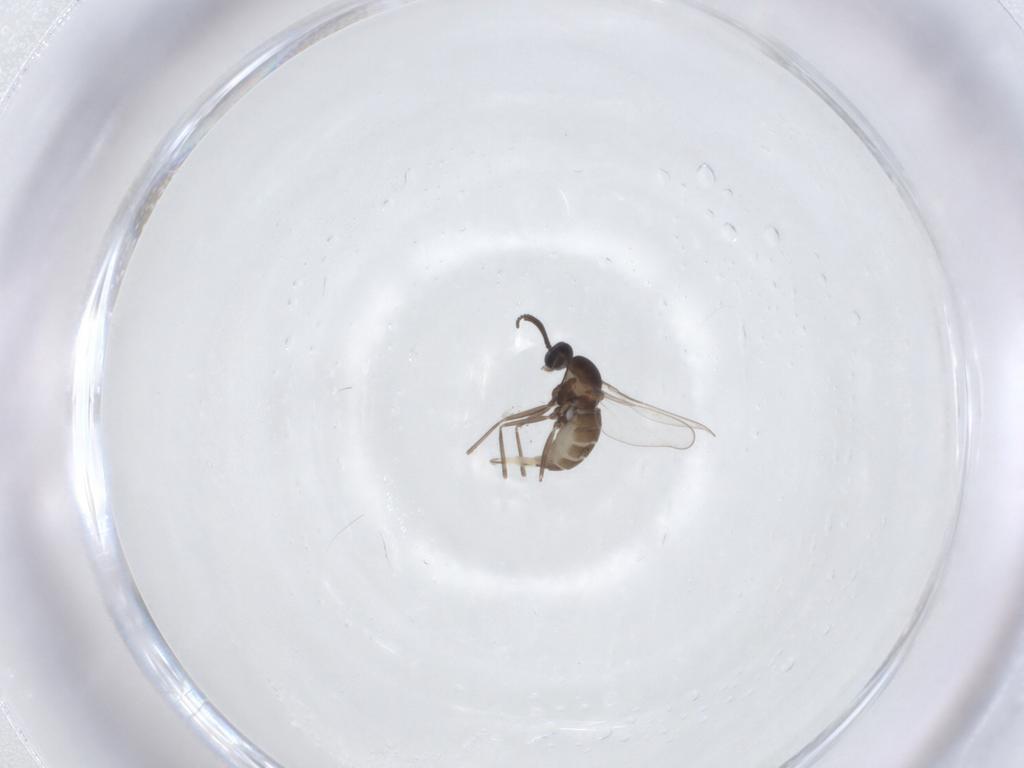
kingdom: Animalia
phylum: Arthropoda
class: Insecta
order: Diptera
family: Cecidomyiidae
